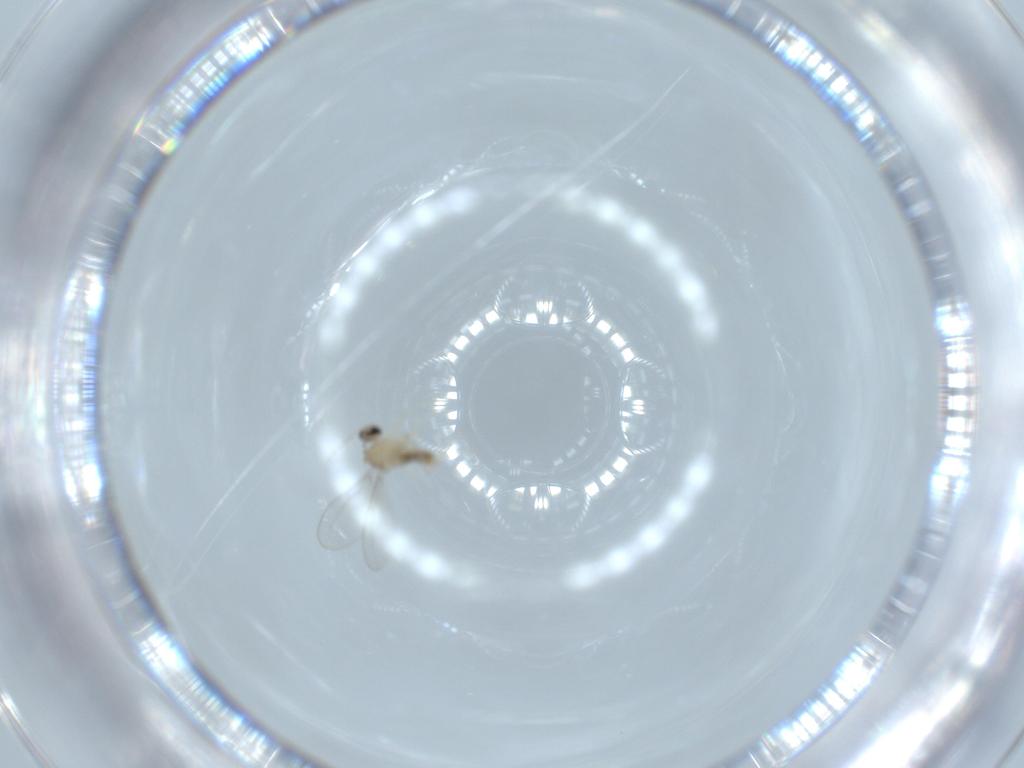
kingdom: Animalia
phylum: Arthropoda
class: Insecta
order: Diptera
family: Cecidomyiidae
